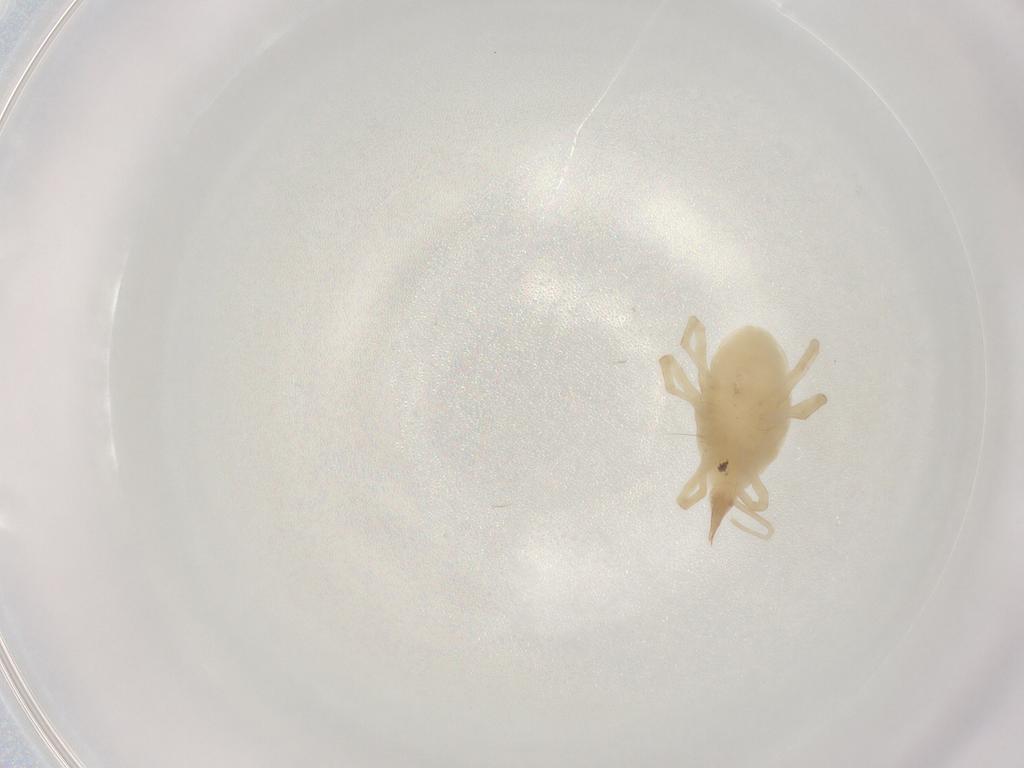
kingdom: Animalia
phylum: Arthropoda
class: Arachnida
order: Trombidiformes
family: Bdellidae
